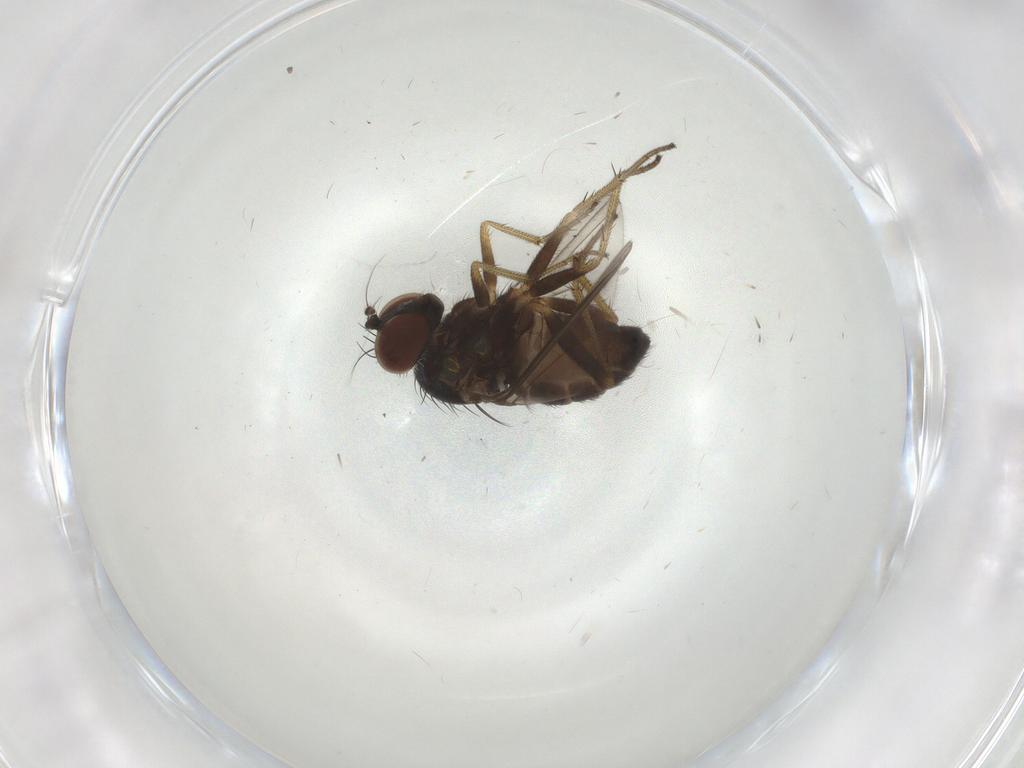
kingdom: Animalia
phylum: Arthropoda
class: Insecta
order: Diptera
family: Dolichopodidae
